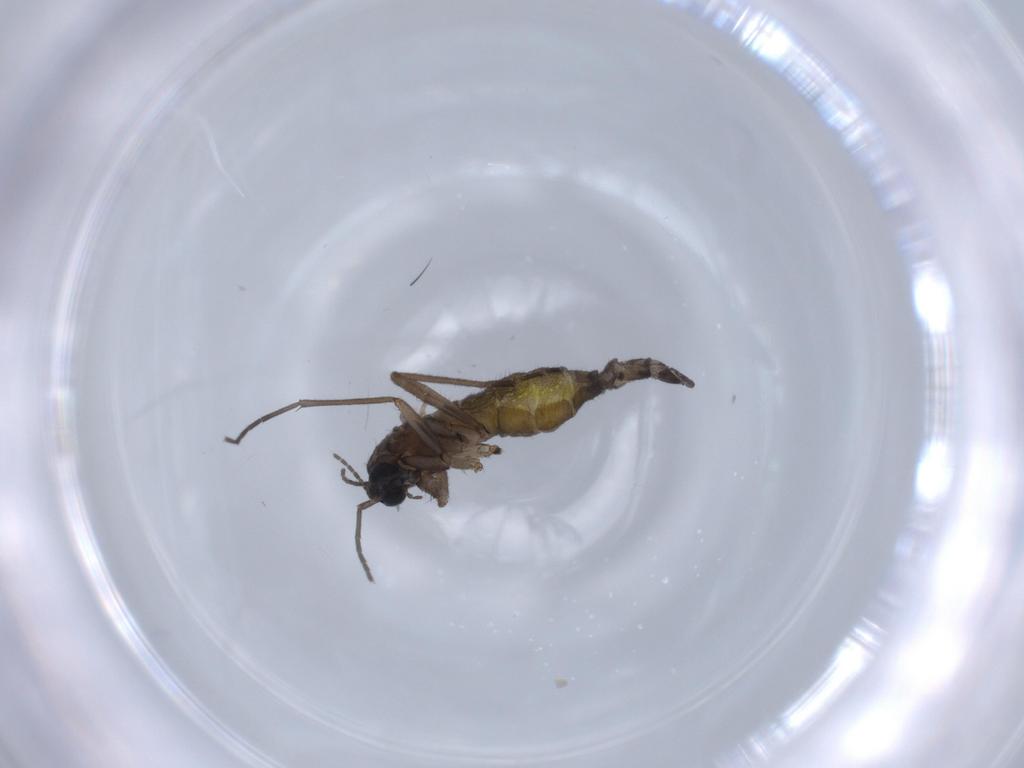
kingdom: Animalia
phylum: Arthropoda
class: Insecta
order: Diptera
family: Sciaridae
